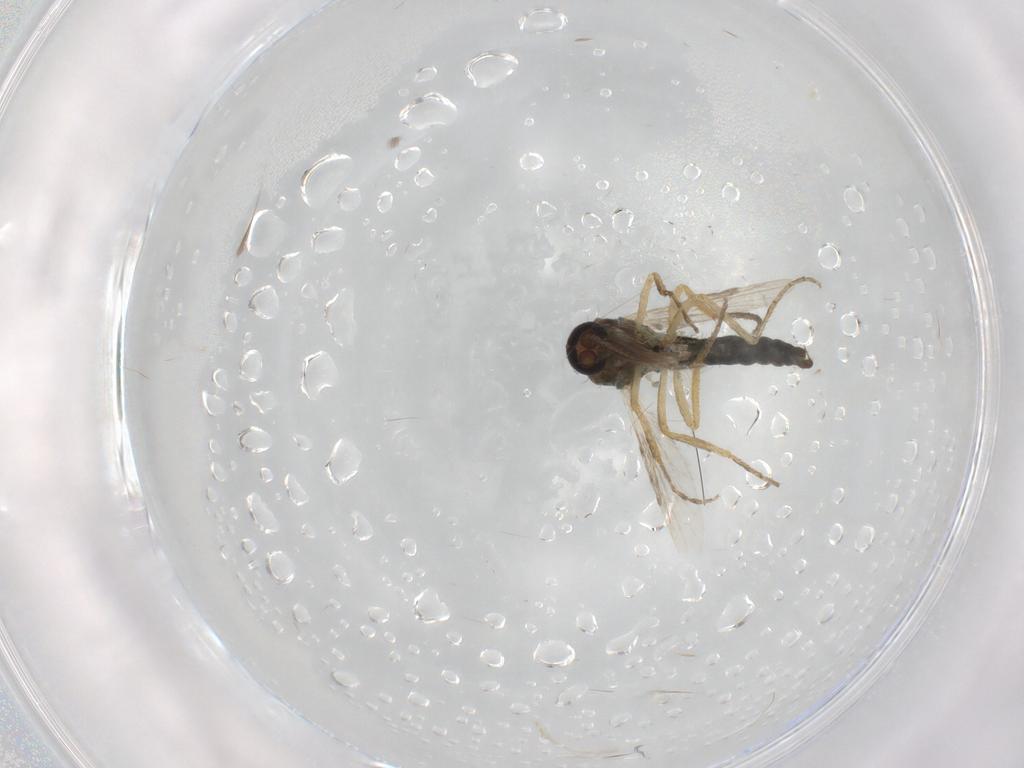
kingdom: Animalia
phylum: Arthropoda
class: Insecta
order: Diptera
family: Ceratopogonidae
